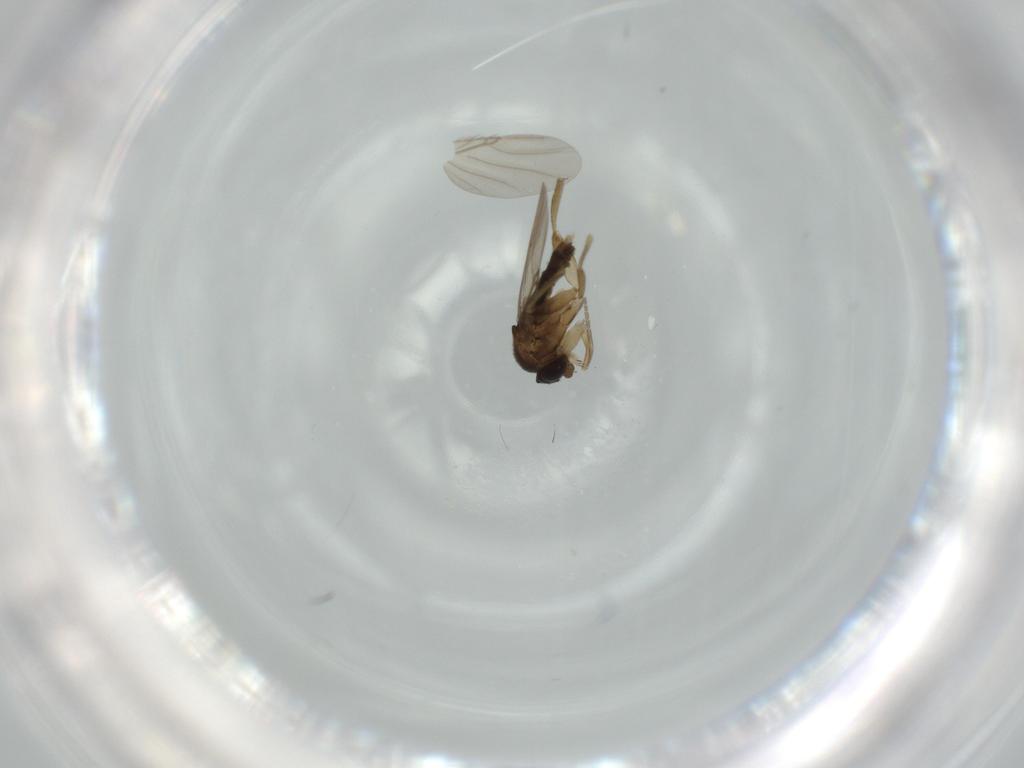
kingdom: Animalia
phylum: Arthropoda
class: Insecta
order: Diptera
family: Phoridae
